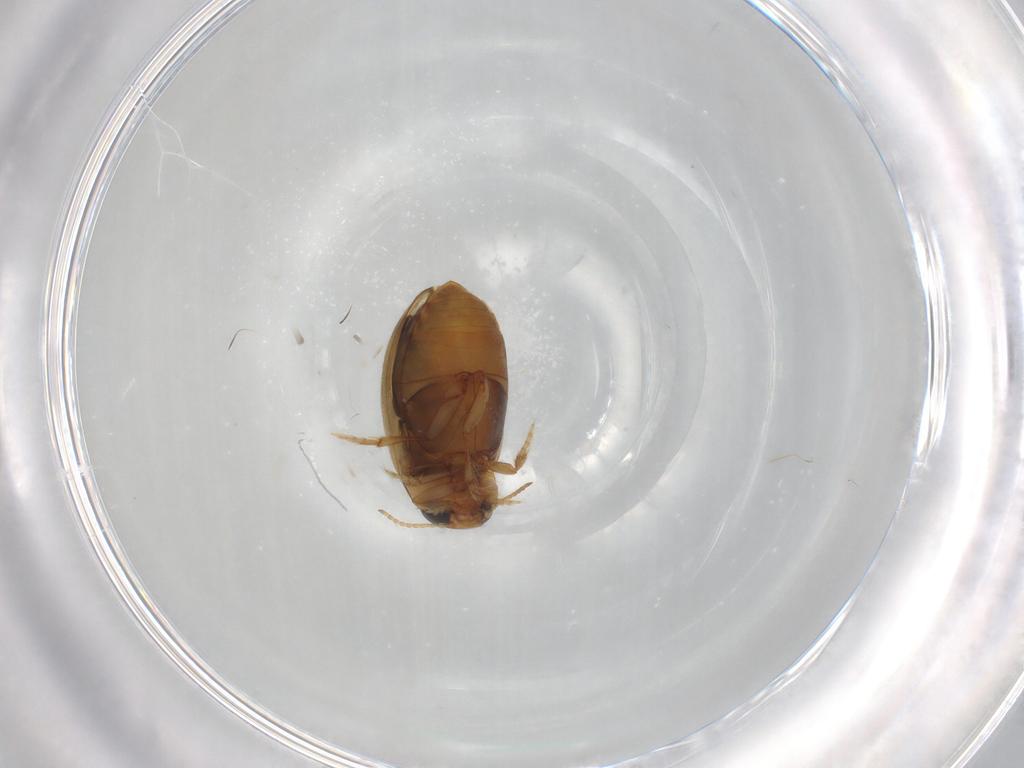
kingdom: Animalia
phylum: Arthropoda
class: Insecta
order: Coleoptera
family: Dytiscidae
